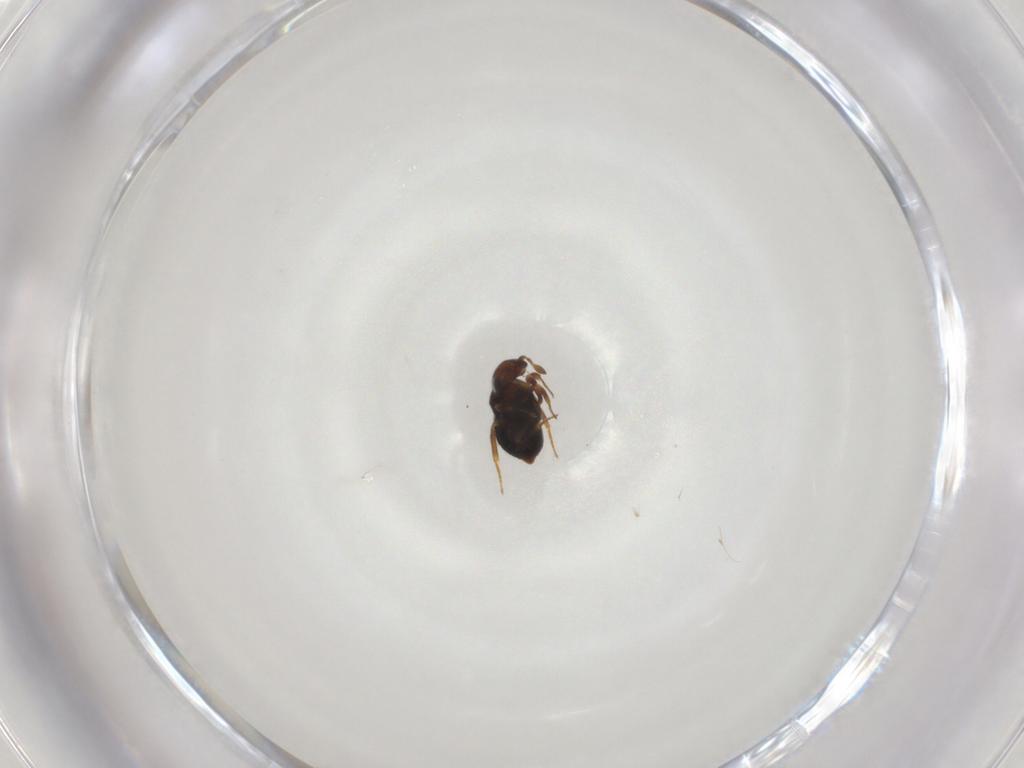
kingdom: Animalia
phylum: Arthropoda
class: Insecta
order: Hymenoptera
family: Scelionidae
